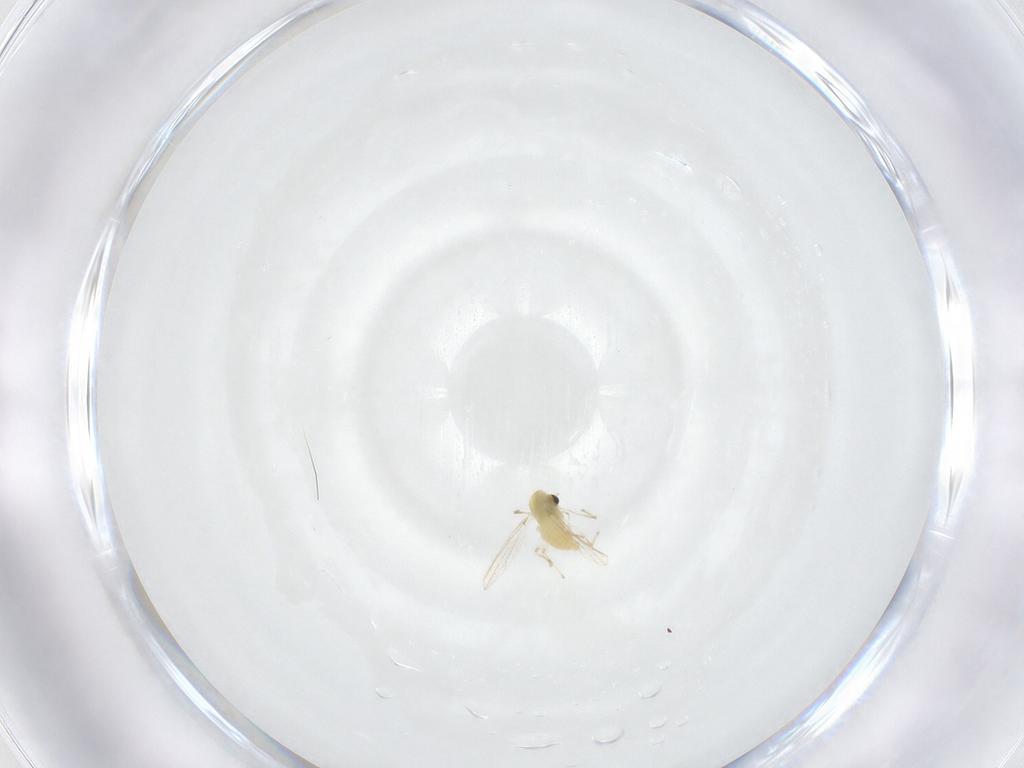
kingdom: Animalia
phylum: Arthropoda
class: Insecta
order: Diptera
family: Chironomidae
